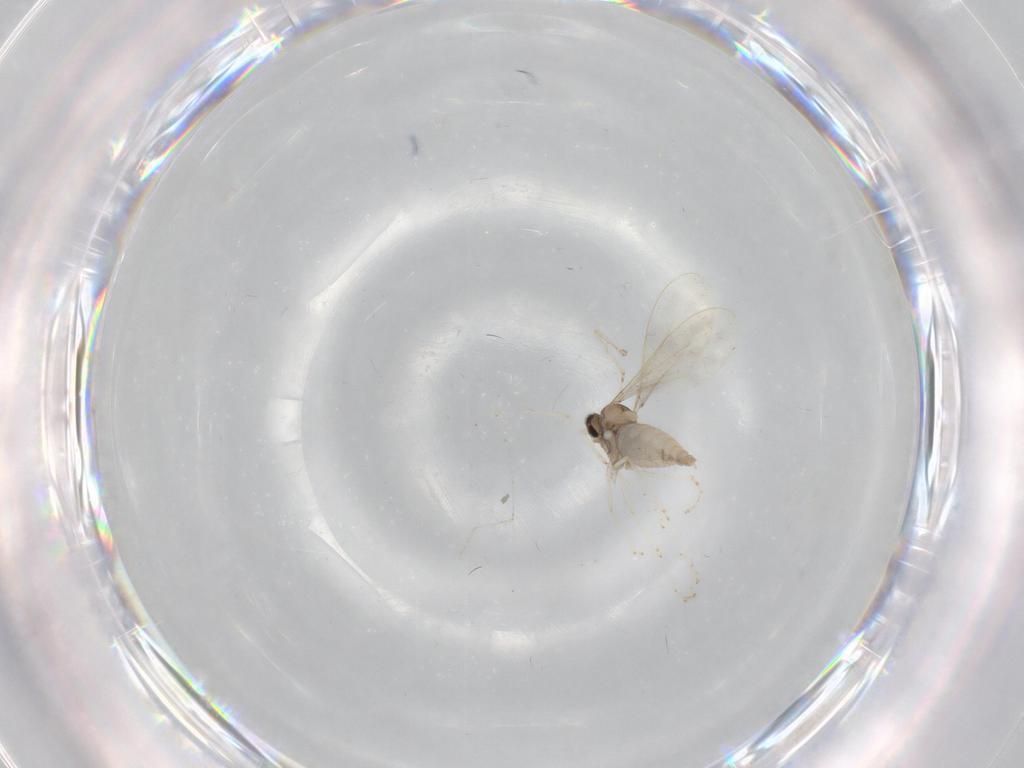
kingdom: Animalia
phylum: Arthropoda
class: Insecta
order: Diptera
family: Cecidomyiidae
